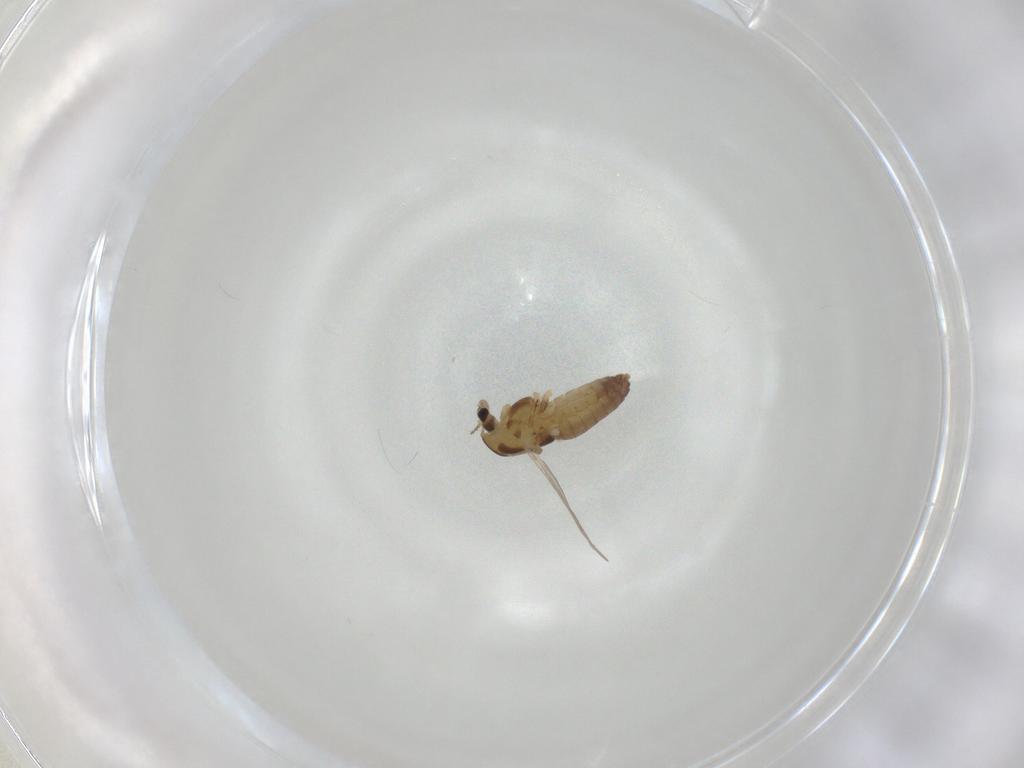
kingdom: Animalia
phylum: Arthropoda
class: Insecta
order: Diptera
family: Chironomidae
